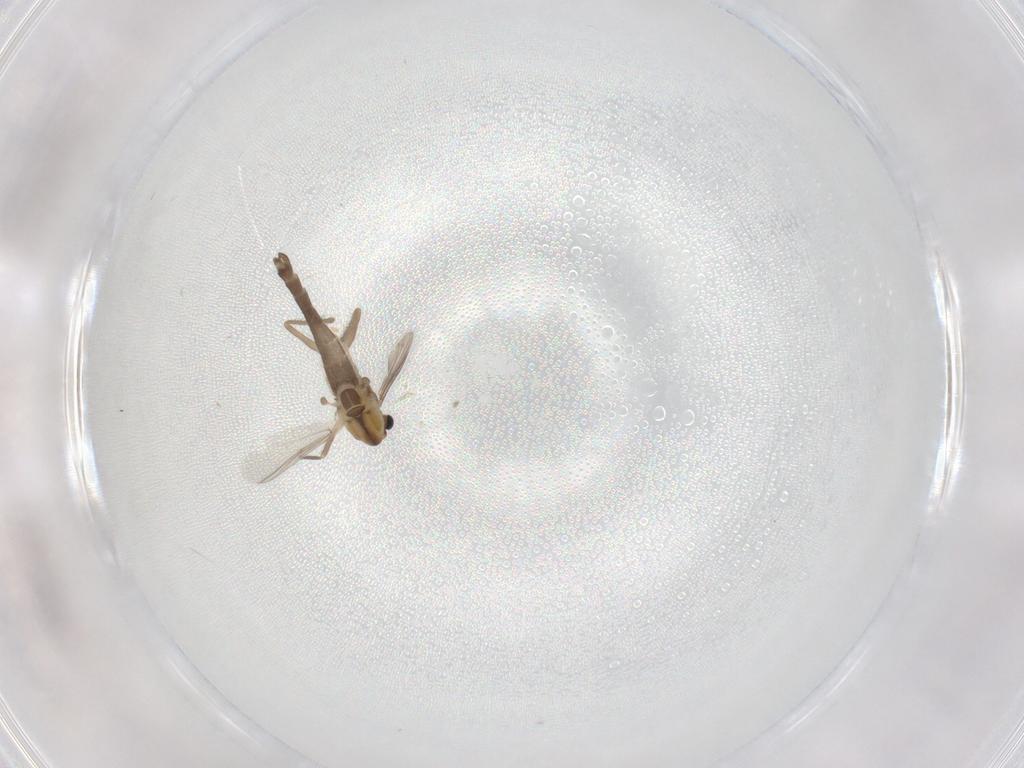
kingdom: Animalia
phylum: Arthropoda
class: Insecta
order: Diptera
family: Chironomidae
